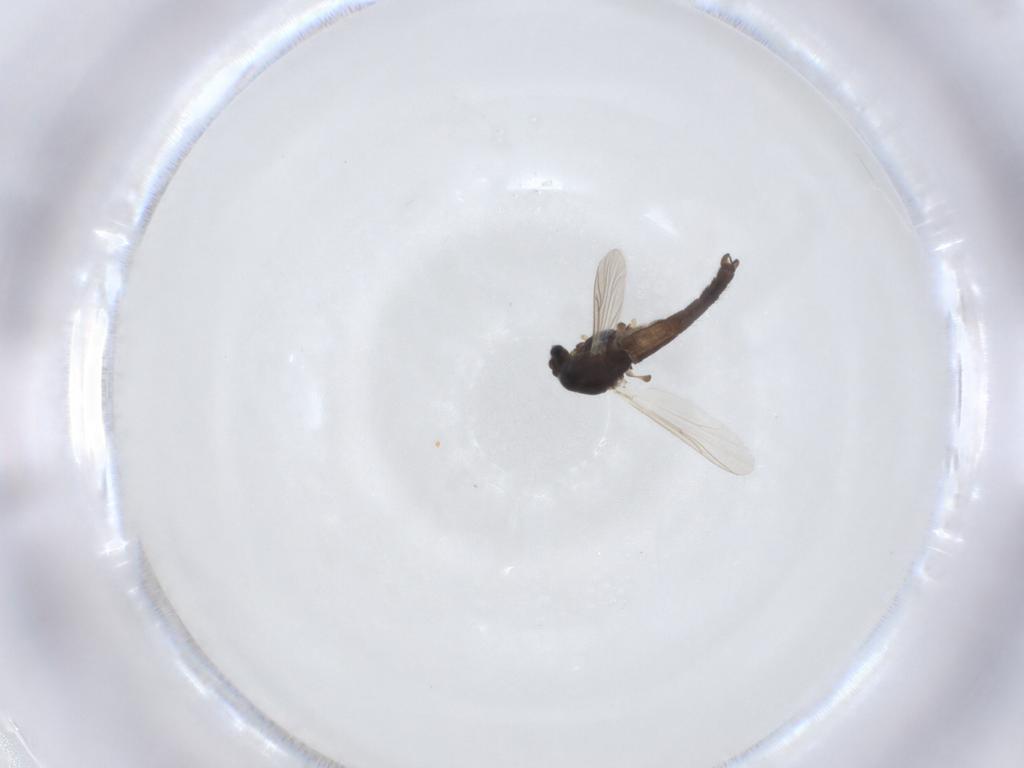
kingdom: Animalia
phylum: Arthropoda
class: Insecta
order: Diptera
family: Chironomidae
